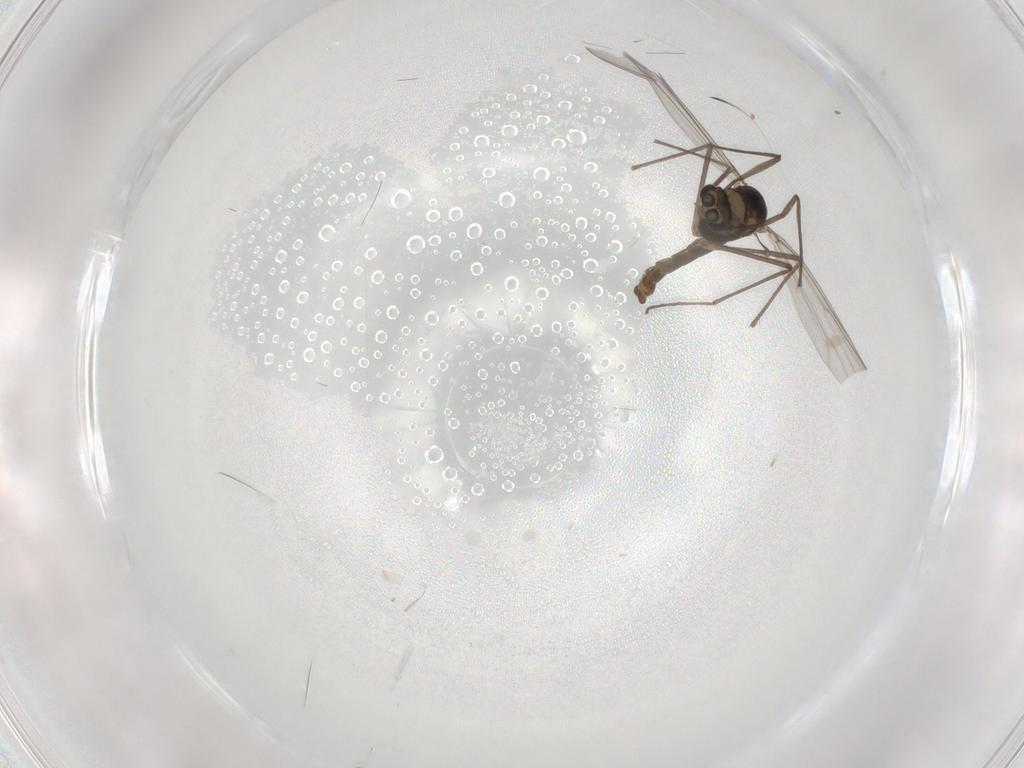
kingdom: Animalia
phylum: Arthropoda
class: Insecta
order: Diptera
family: Chironomidae
